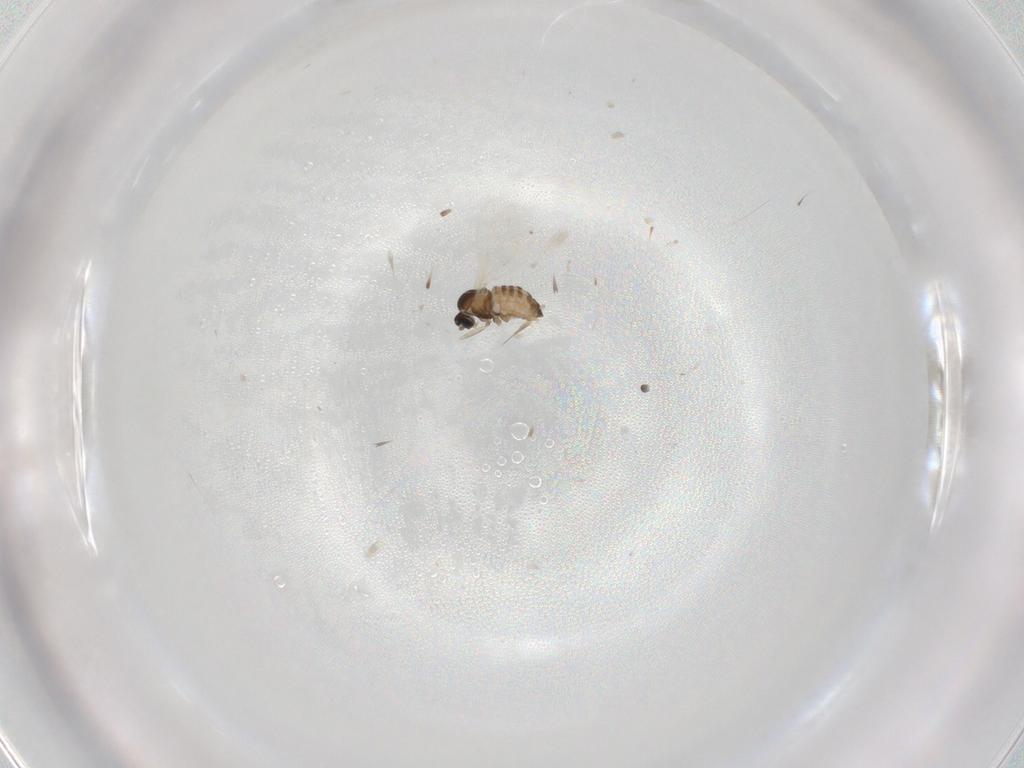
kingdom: Animalia
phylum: Arthropoda
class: Insecta
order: Diptera
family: Cecidomyiidae
